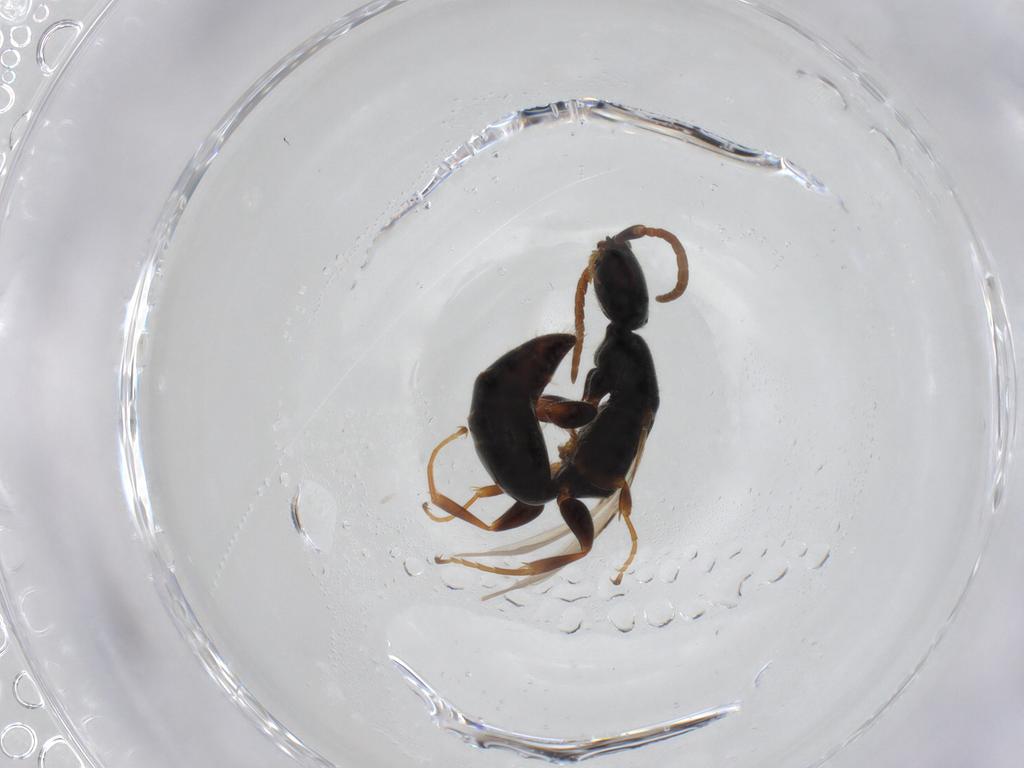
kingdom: Animalia
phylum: Arthropoda
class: Insecta
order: Hymenoptera
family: Bethylidae
